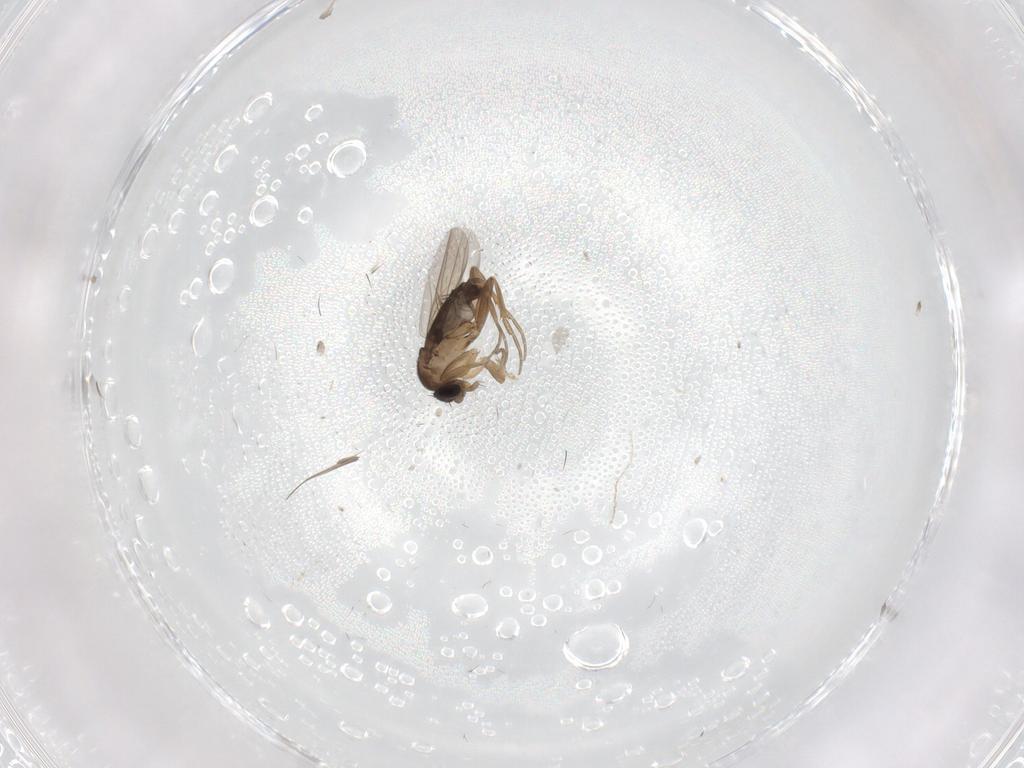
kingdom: Animalia
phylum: Arthropoda
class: Insecta
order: Diptera
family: Phoridae
